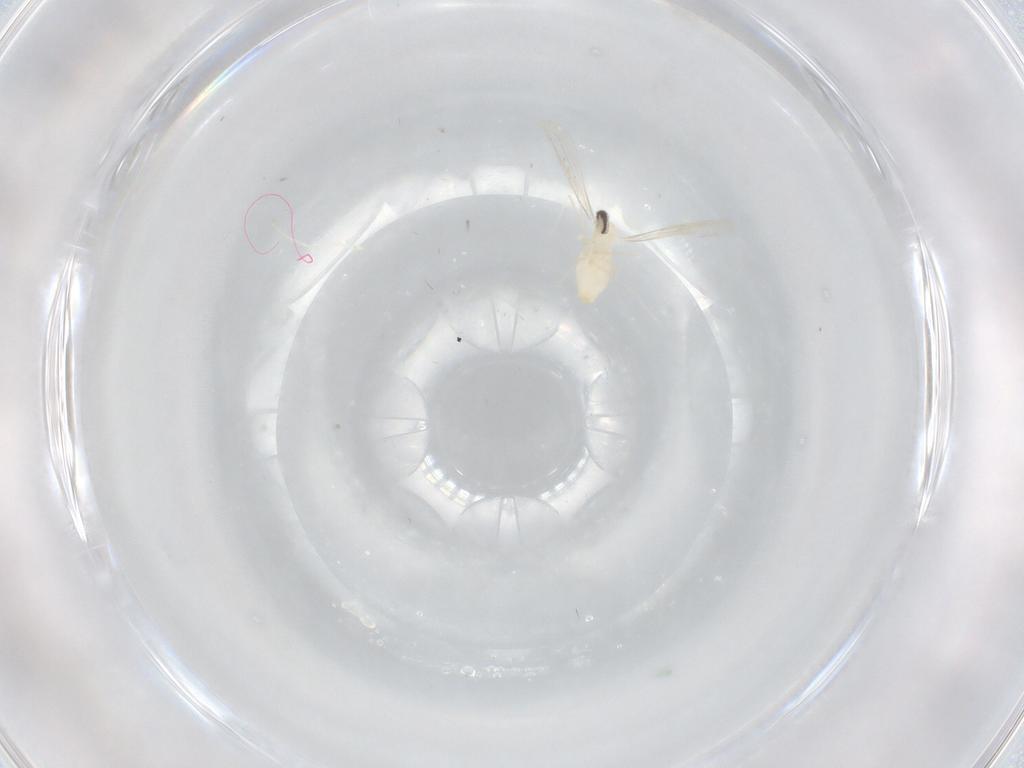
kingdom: Animalia
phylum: Arthropoda
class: Insecta
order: Diptera
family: Cecidomyiidae
